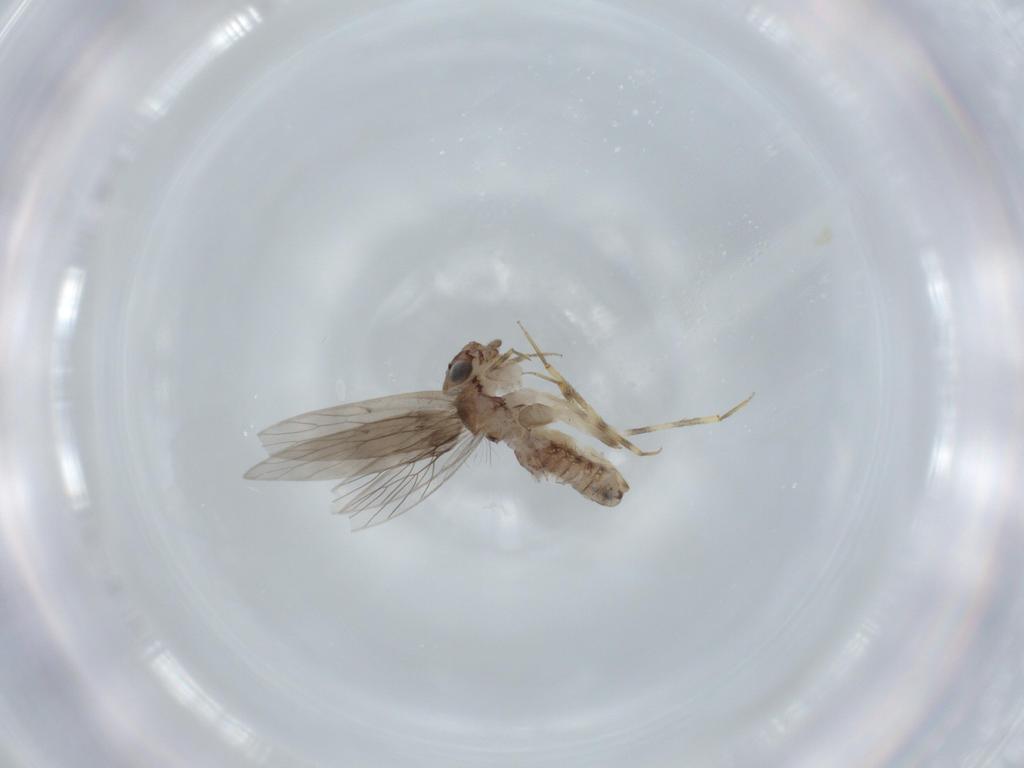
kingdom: Animalia
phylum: Arthropoda
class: Insecta
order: Psocodea
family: Lepidopsocidae
